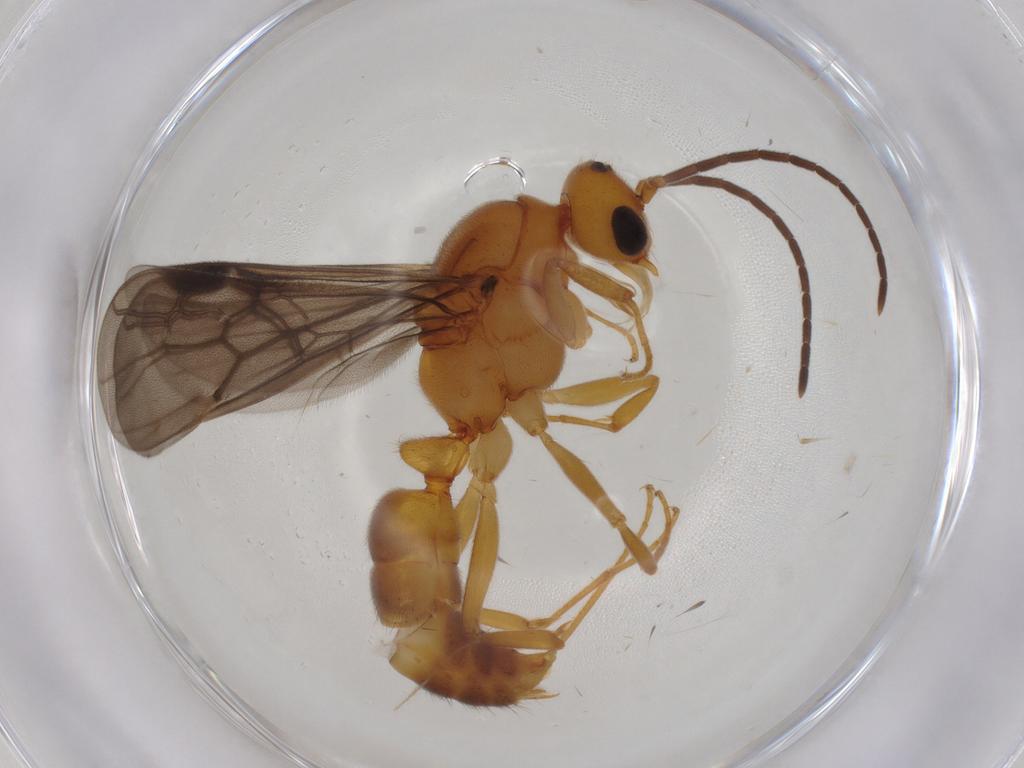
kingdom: Animalia
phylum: Arthropoda
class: Insecta
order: Hymenoptera
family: Formicidae
